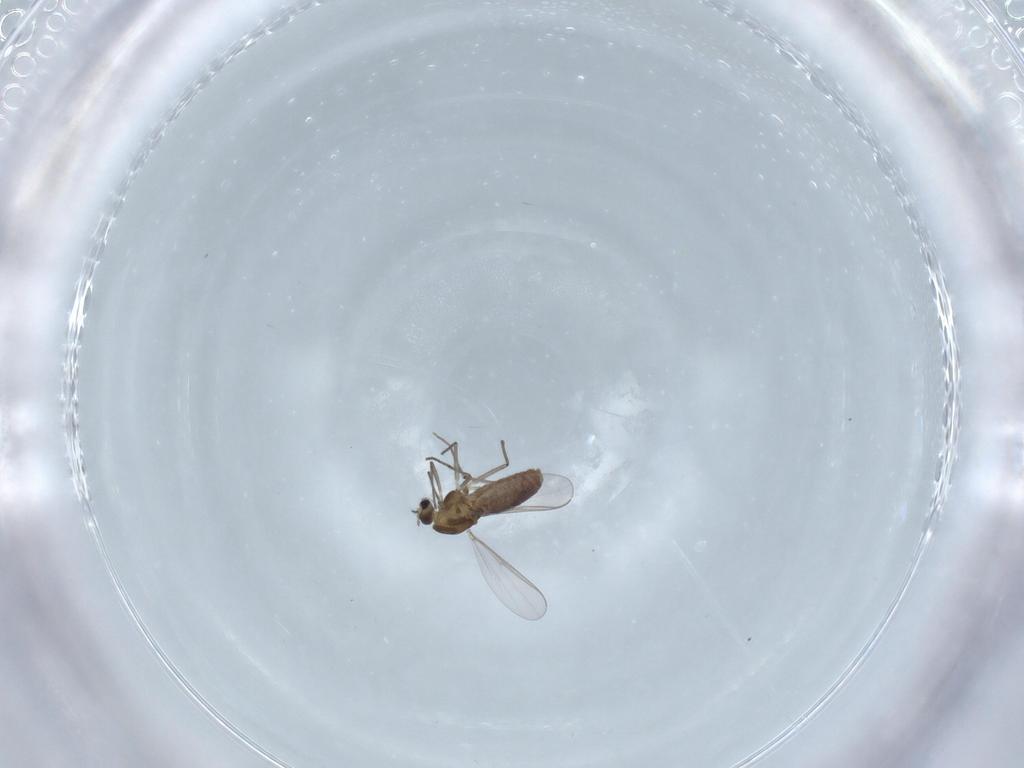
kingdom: Animalia
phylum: Arthropoda
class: Insecta
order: Diptera
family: Chironomidae
